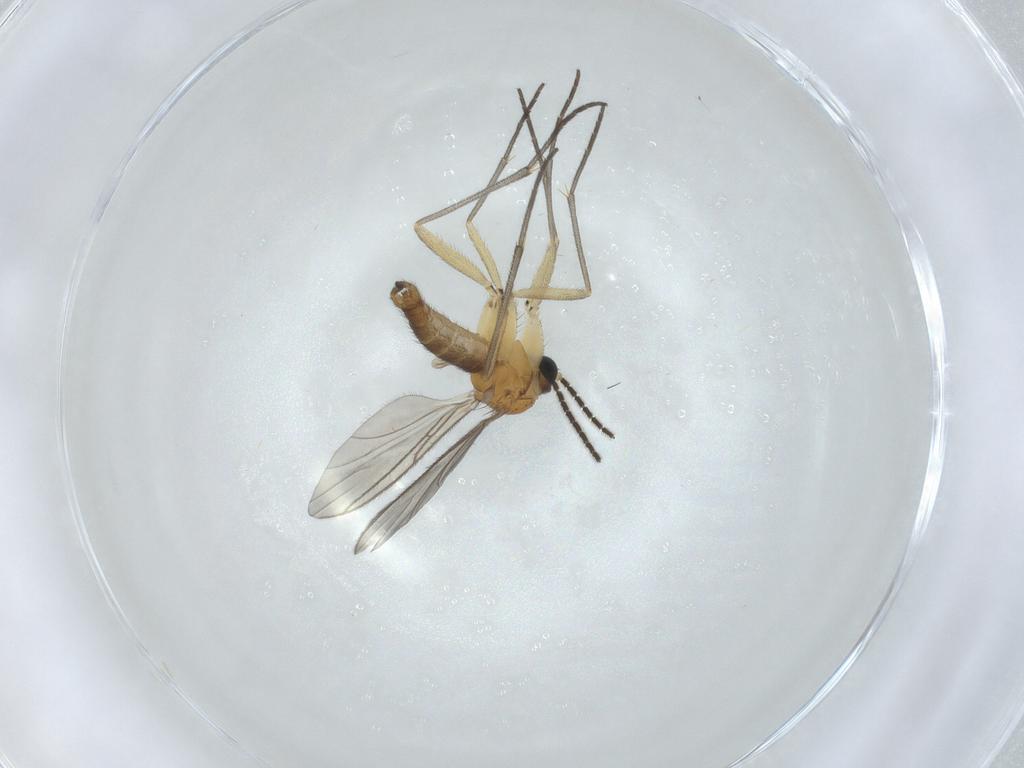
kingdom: Animalia
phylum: Arthropoda
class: Insecta
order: Diptera
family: Sciaridae
